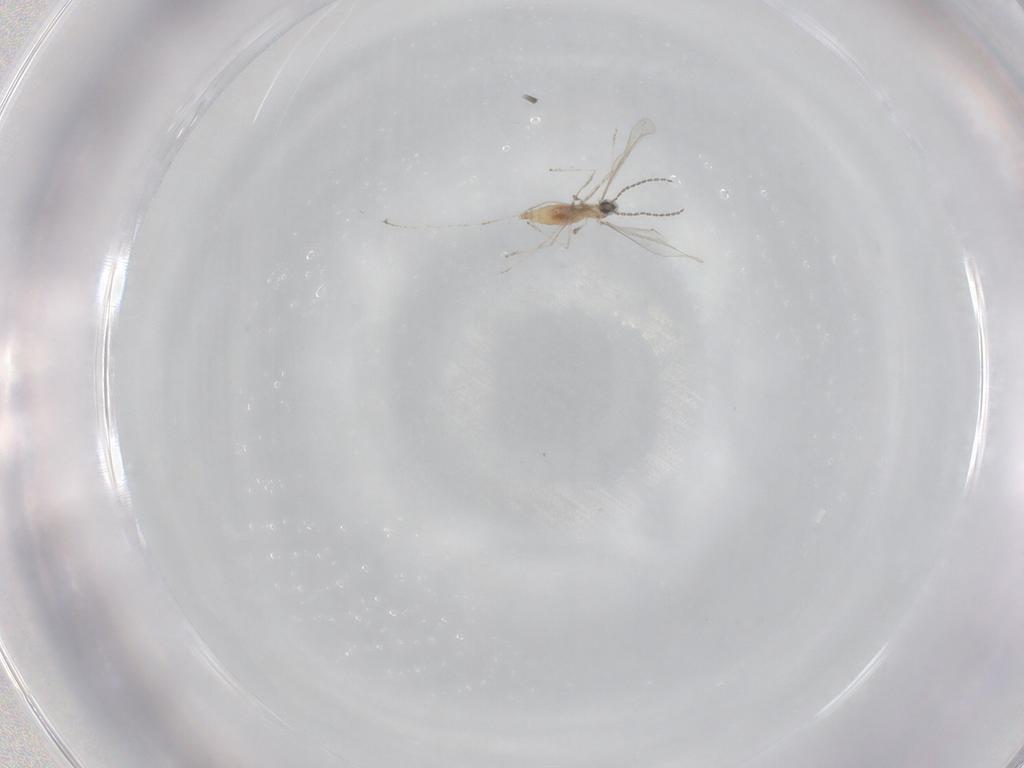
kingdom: Animalia
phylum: Arthropoda
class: Insecta
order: Diptera
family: Cecidomyiidae
